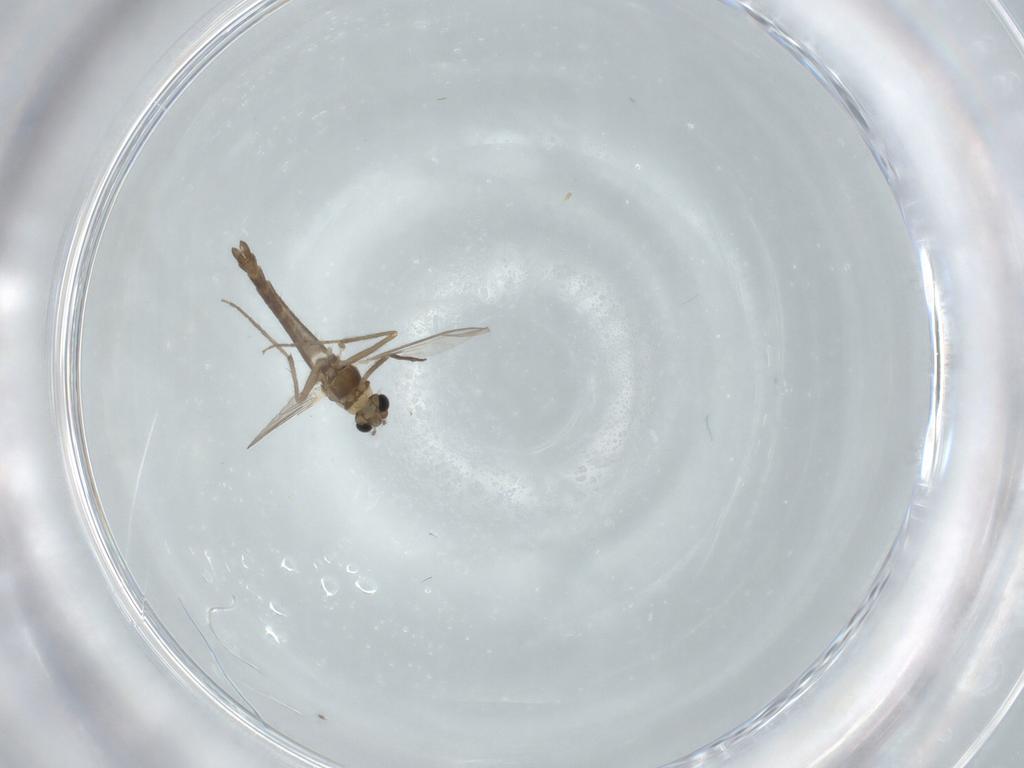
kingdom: Animalia
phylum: Arthropoda
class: Insecta
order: Diptera
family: Chironomidae
